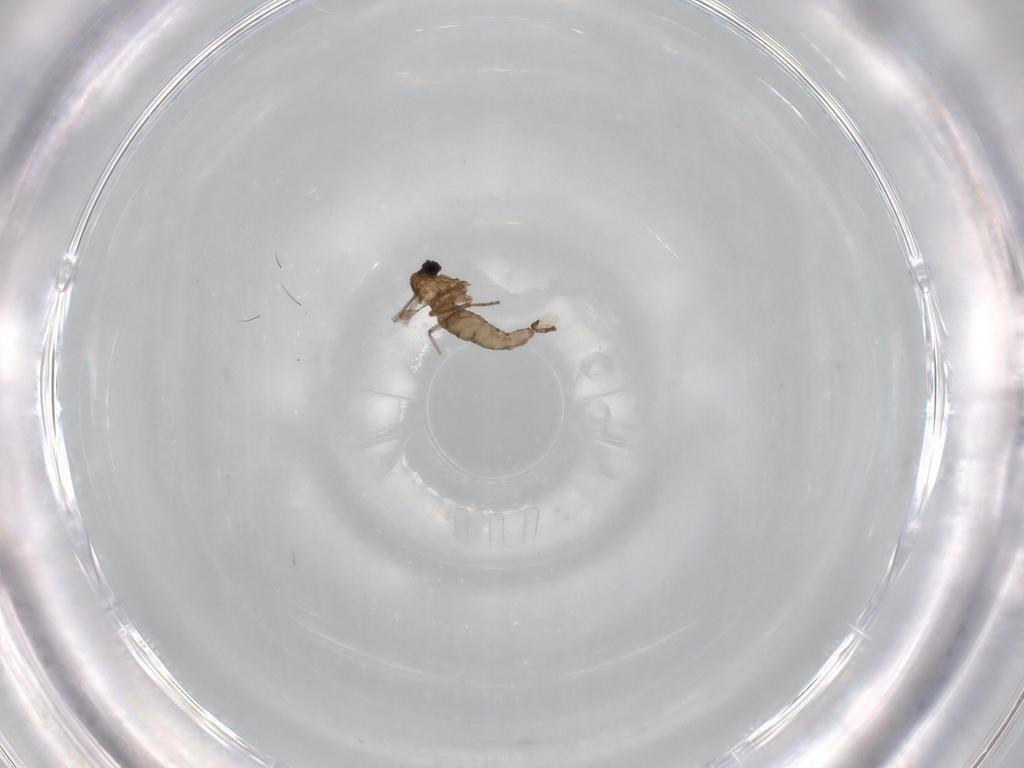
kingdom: Animalia
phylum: Arthropoda
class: Insecta
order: Diptera
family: Sciaridae
